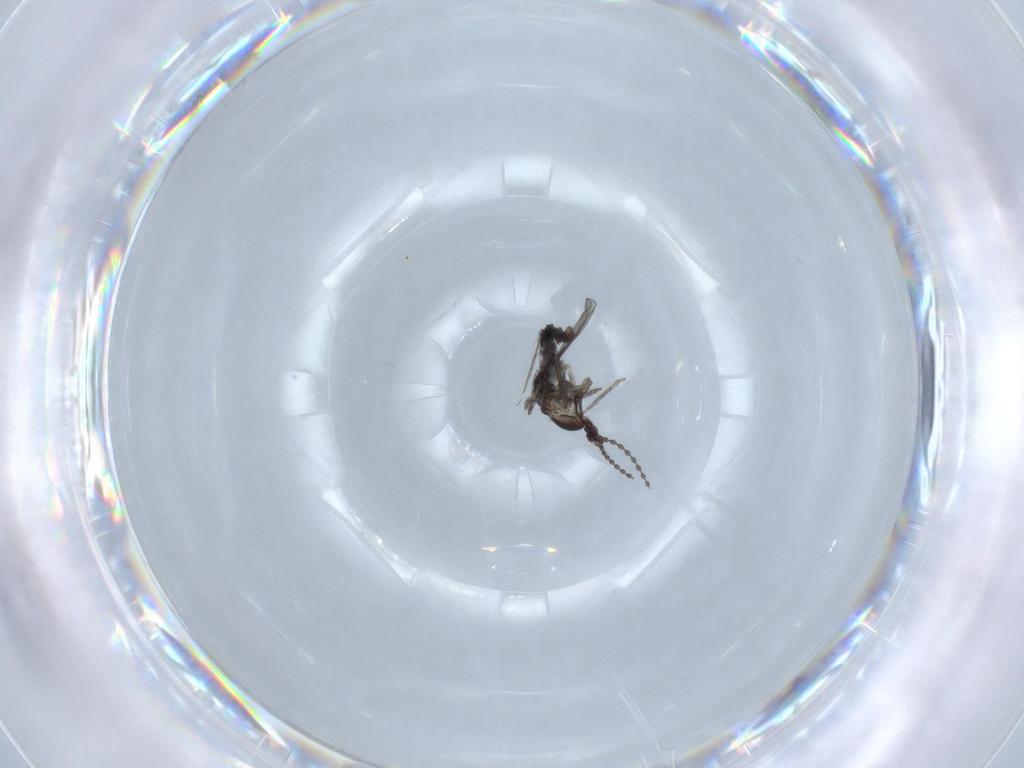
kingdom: Animalia
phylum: Arthropoda
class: Insecta
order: Diptera
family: Cecidomyiidae
